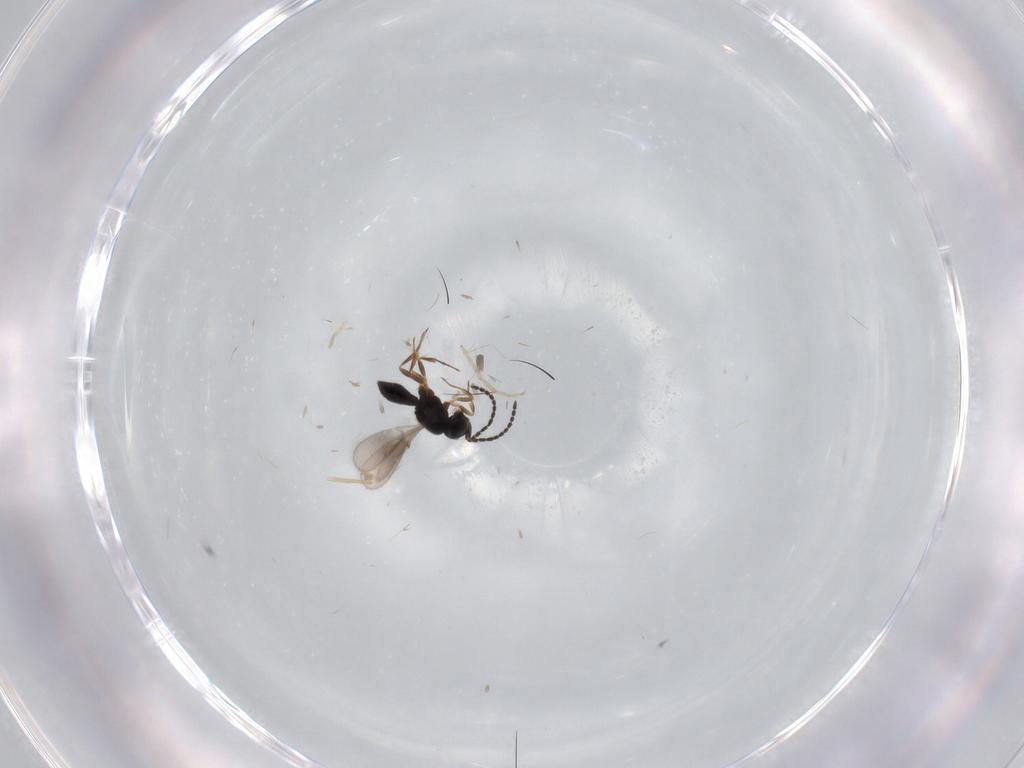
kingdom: Animalia
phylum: Arthropoda
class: Insecta
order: Hymenoptera
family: Scelionidae
